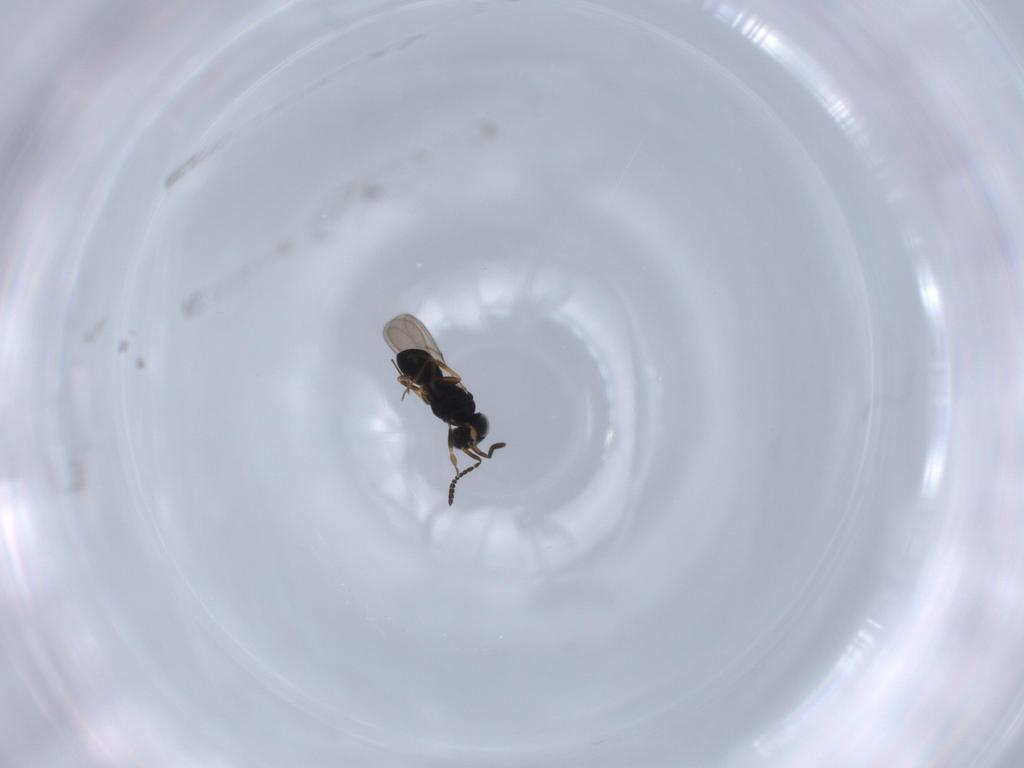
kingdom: Animalia
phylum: Arthropoda
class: Insecta
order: Hymenoptera
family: Scelionidae
